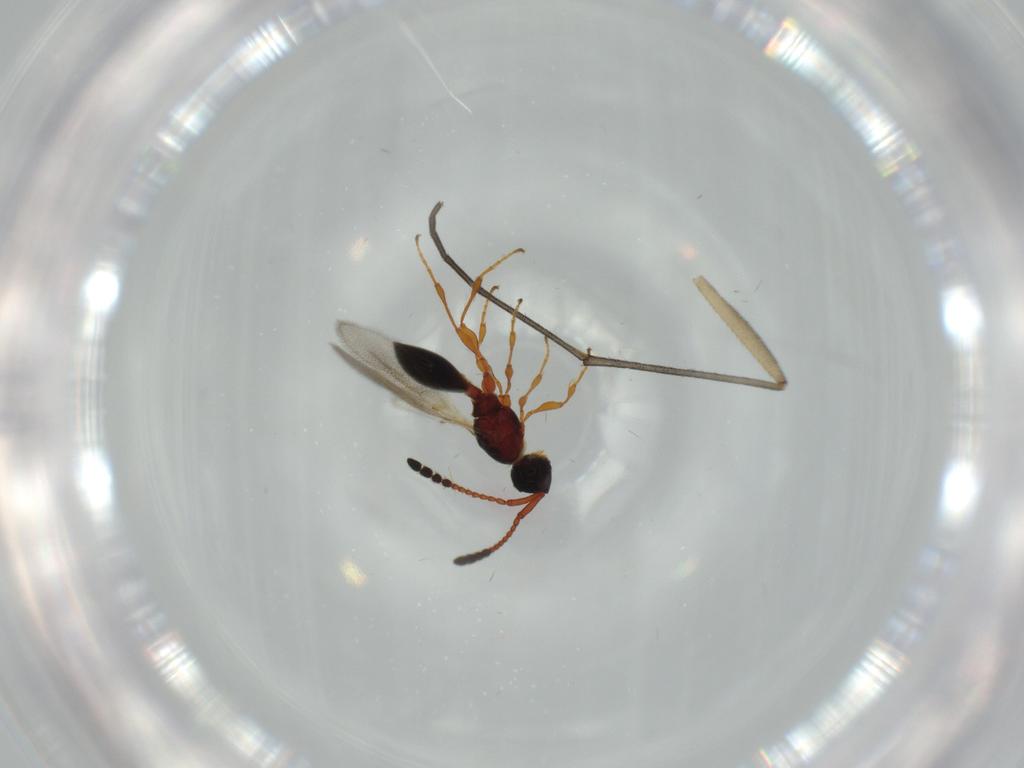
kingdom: Animalia
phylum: Arthropoda
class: Insecta
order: Hymenoptera
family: Diapriidae
